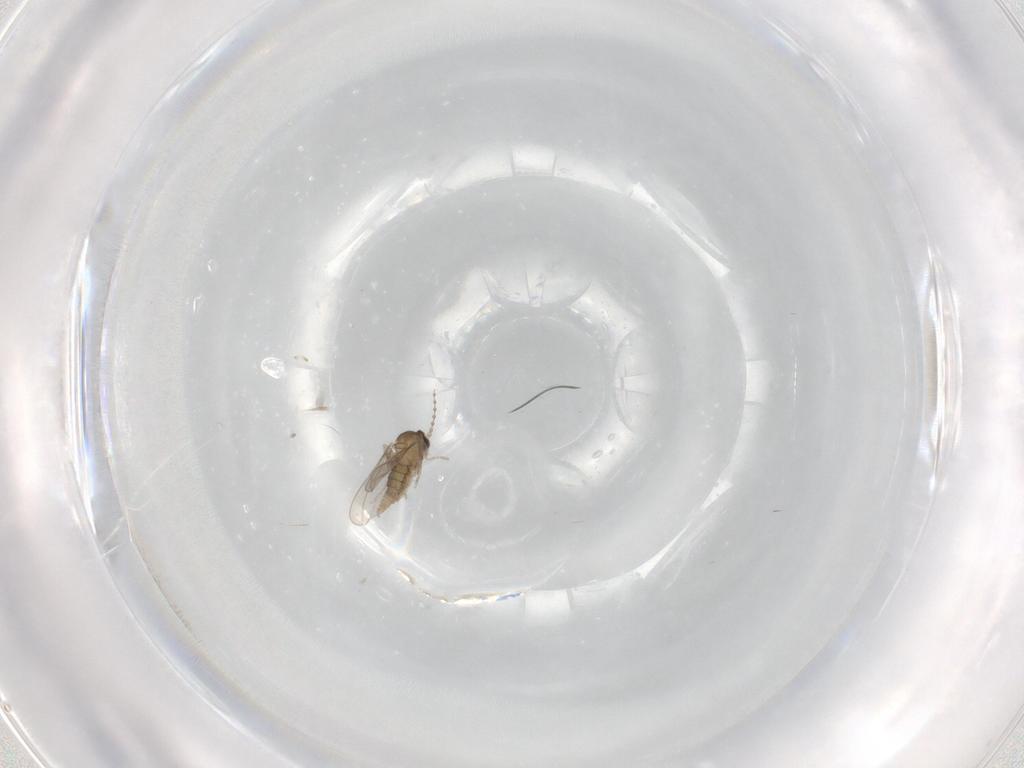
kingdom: Animalia
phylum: Arthropoda
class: Insecta
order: Diptera
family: Cecidomyiidae
